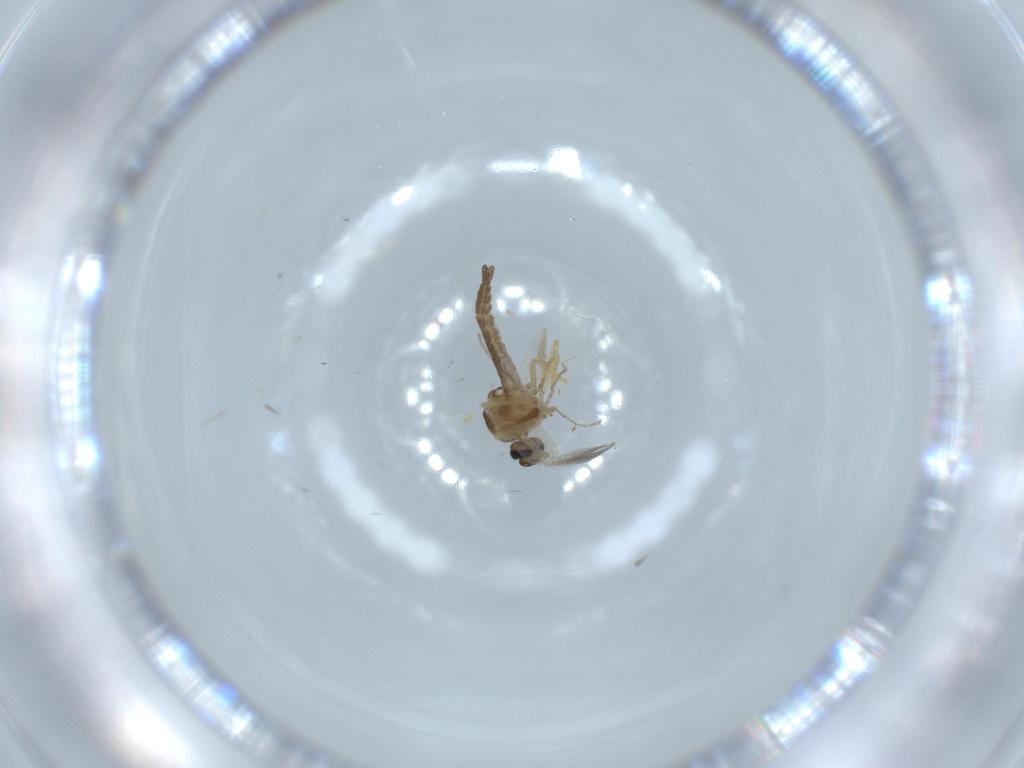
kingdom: Animalia
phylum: Arthropoda
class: Insecta
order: Diptera
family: Cecidomyiidae
